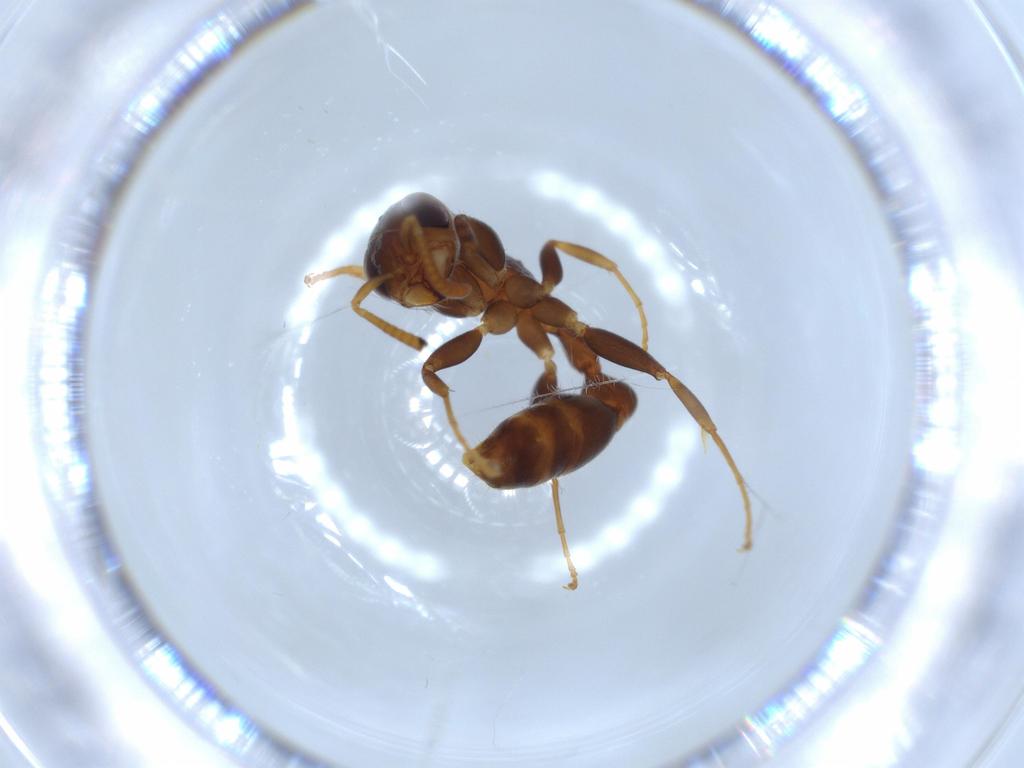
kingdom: Animalia
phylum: Arthropoda
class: Insecta
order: Hymenoptera
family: Formicidae
